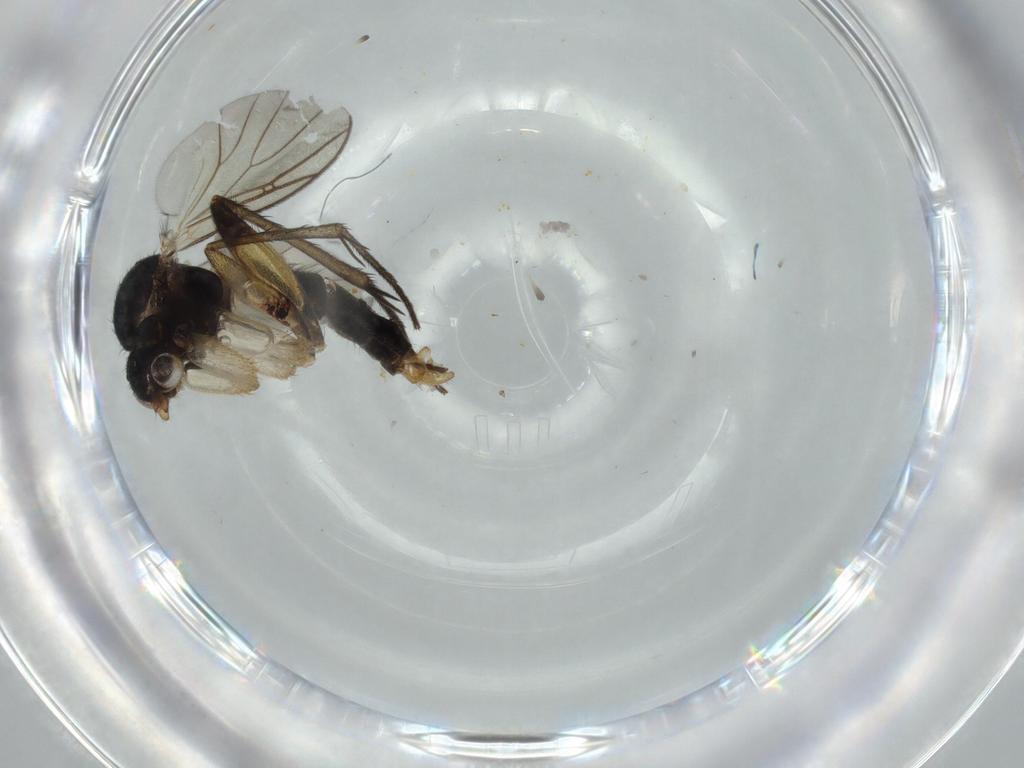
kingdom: Animalia
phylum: Arthropoda
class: Insecta
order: Diptera
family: Mycetophilidae
